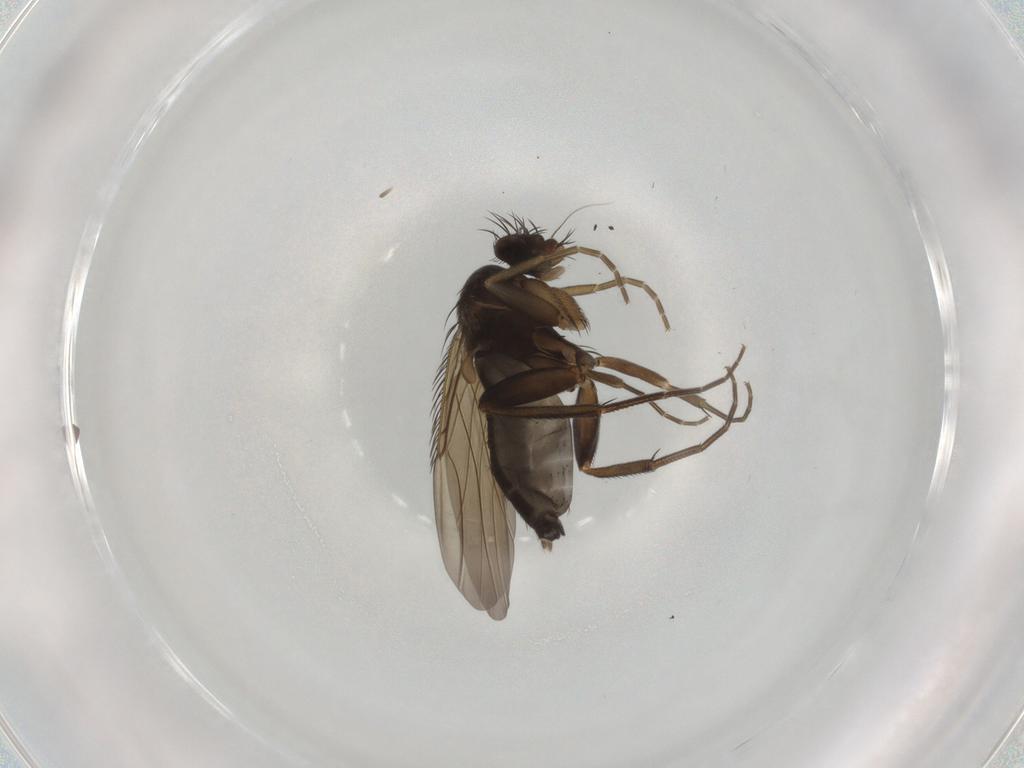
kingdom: Animalia
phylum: Arthropoda
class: Insecta
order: Diptera
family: Phoridae
